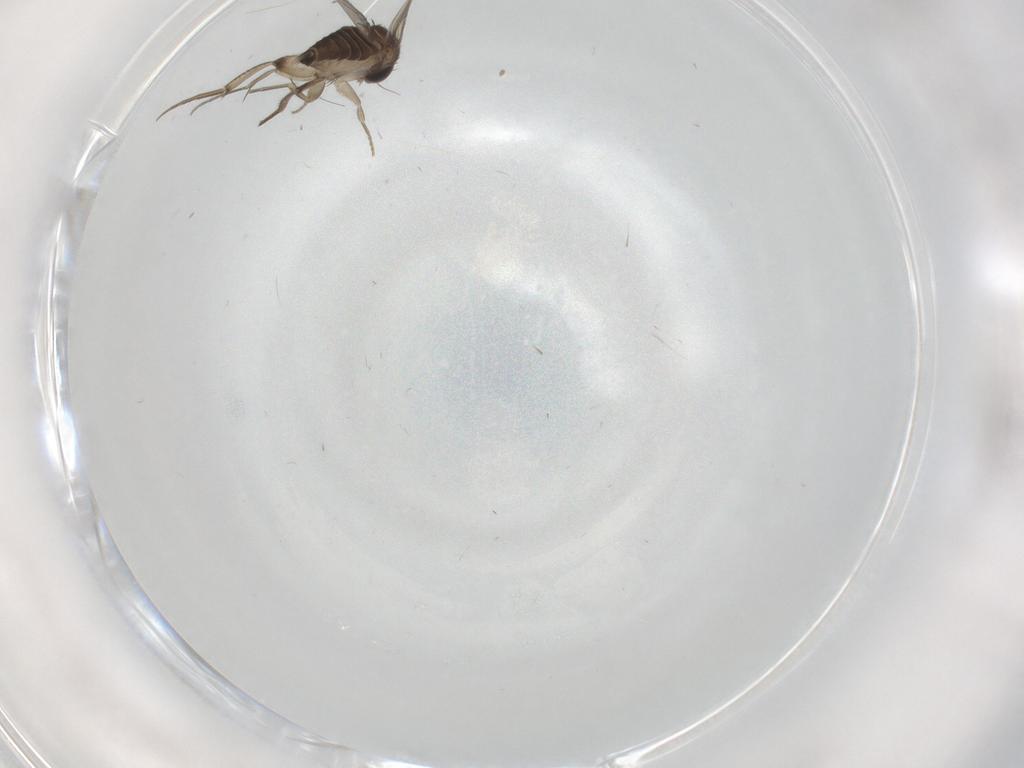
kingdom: Animalia
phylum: Arthropoda
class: Insecta
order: Diptera
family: Phoridae
